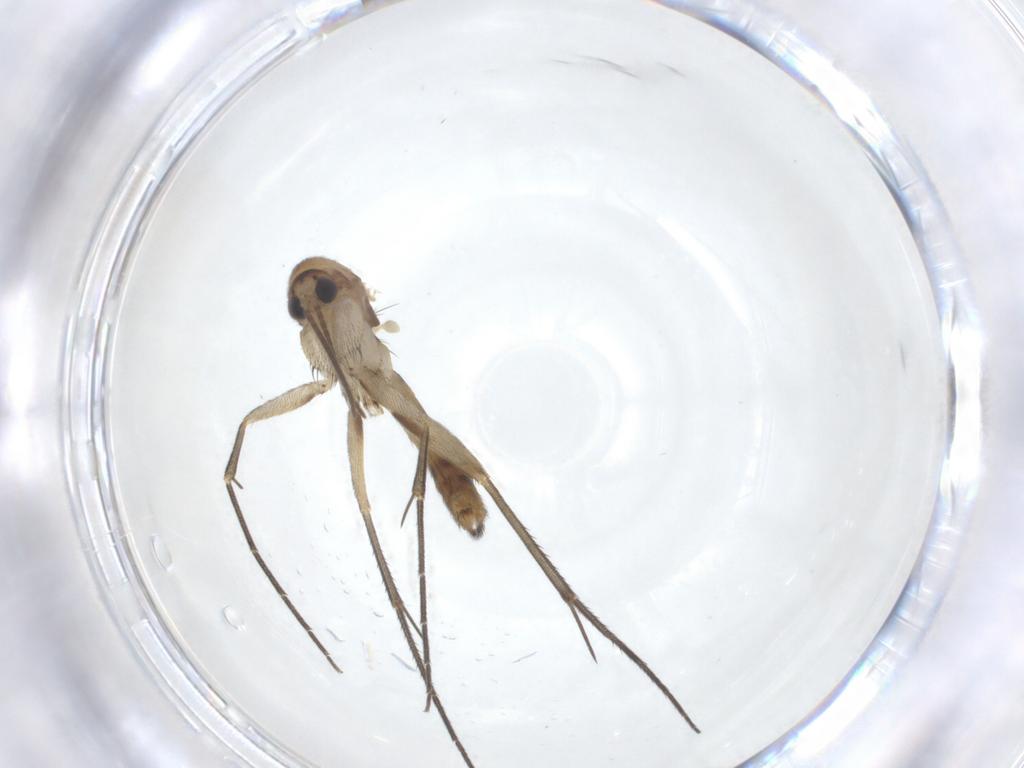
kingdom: Animalia
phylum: Arthropoda
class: Insecta
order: Diptera
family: Mycetophilidae
